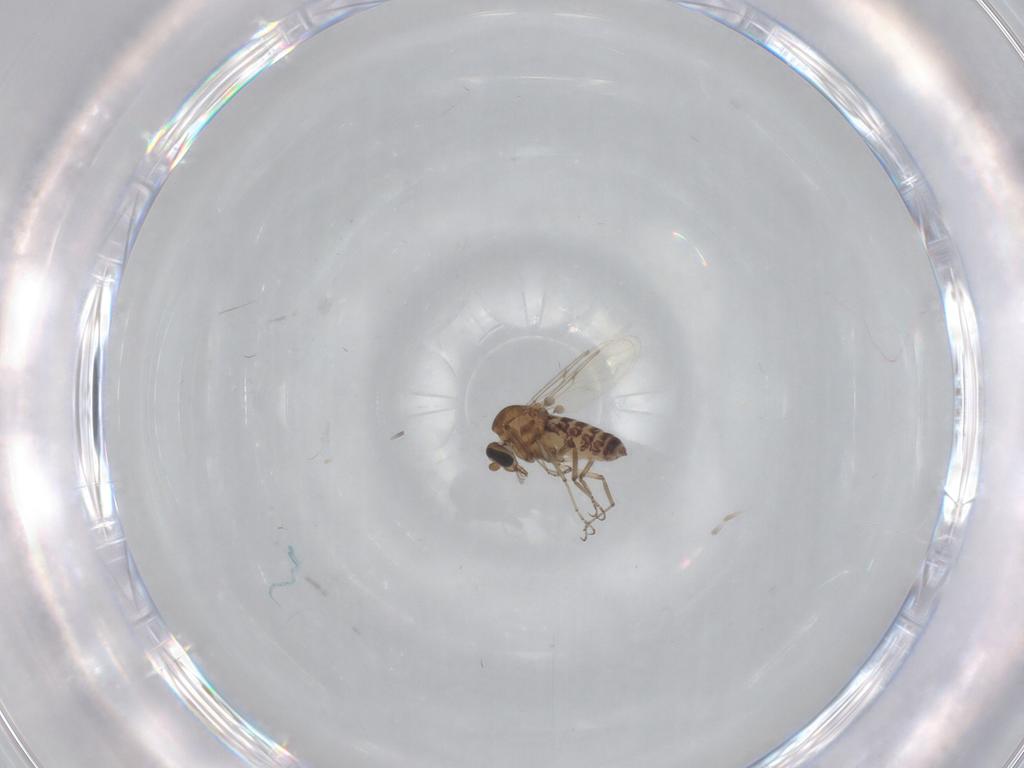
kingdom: Animalia
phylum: Arthropoda
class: Insecta
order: Diptera
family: Ceratopogonidae
